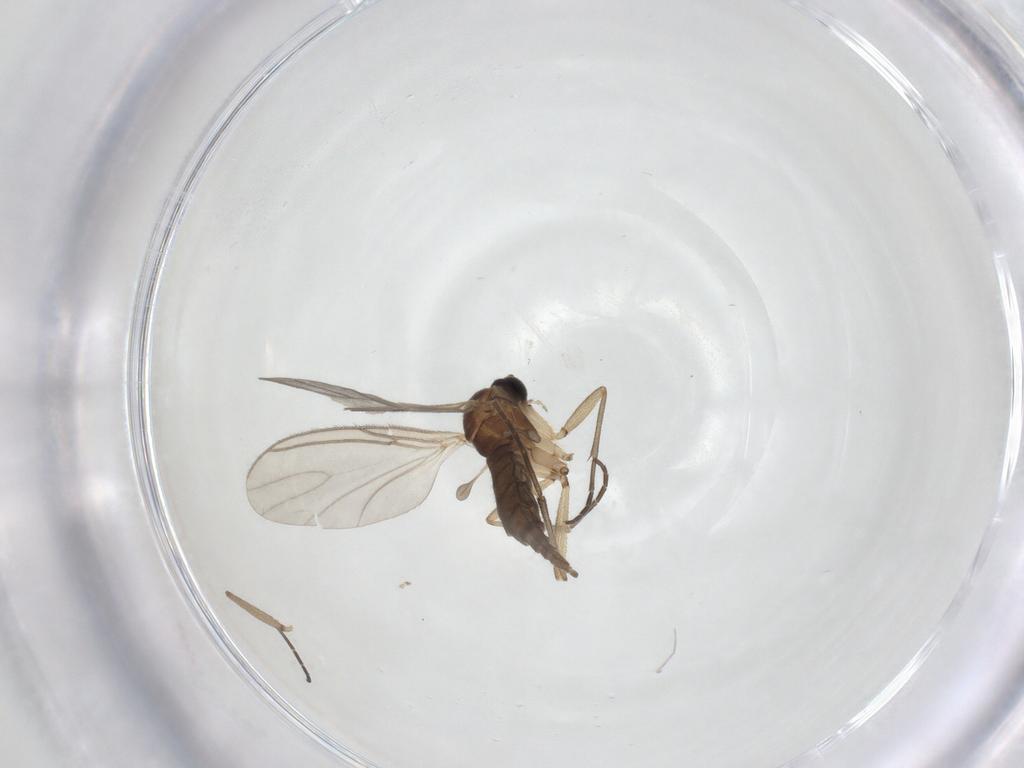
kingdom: Animalia
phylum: Arthropoda
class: Insecta
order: Diptera
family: Sciaridae
